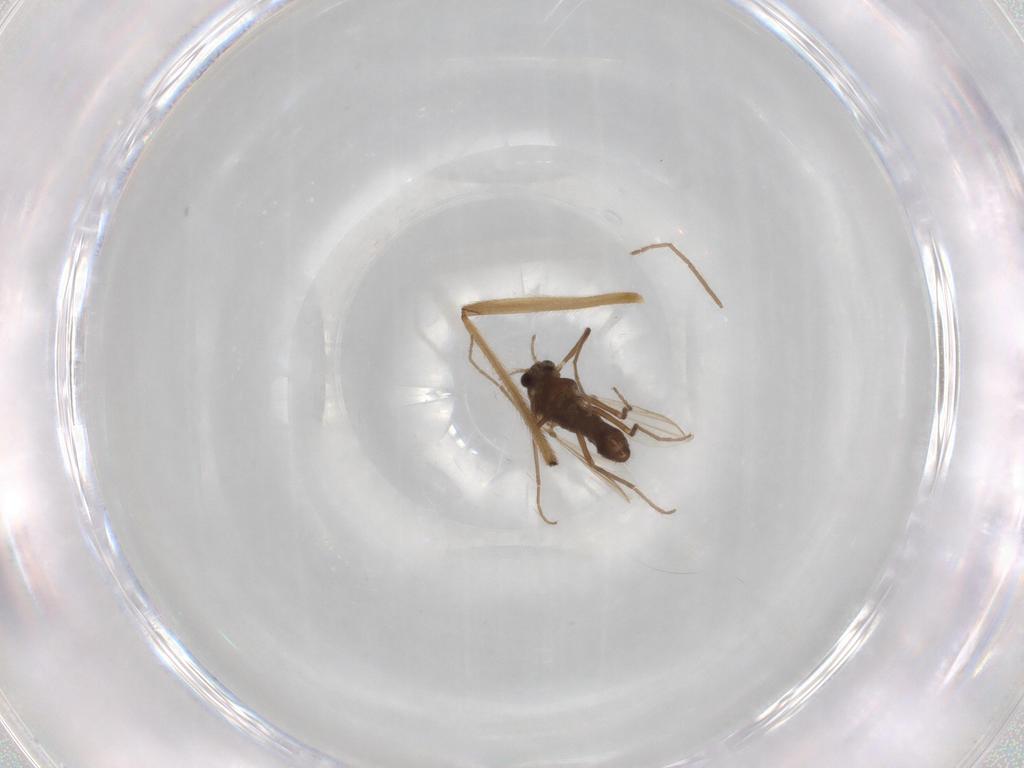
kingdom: Animalia
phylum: Arthropoda
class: Insecta
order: Diptera
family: Chironomidae
